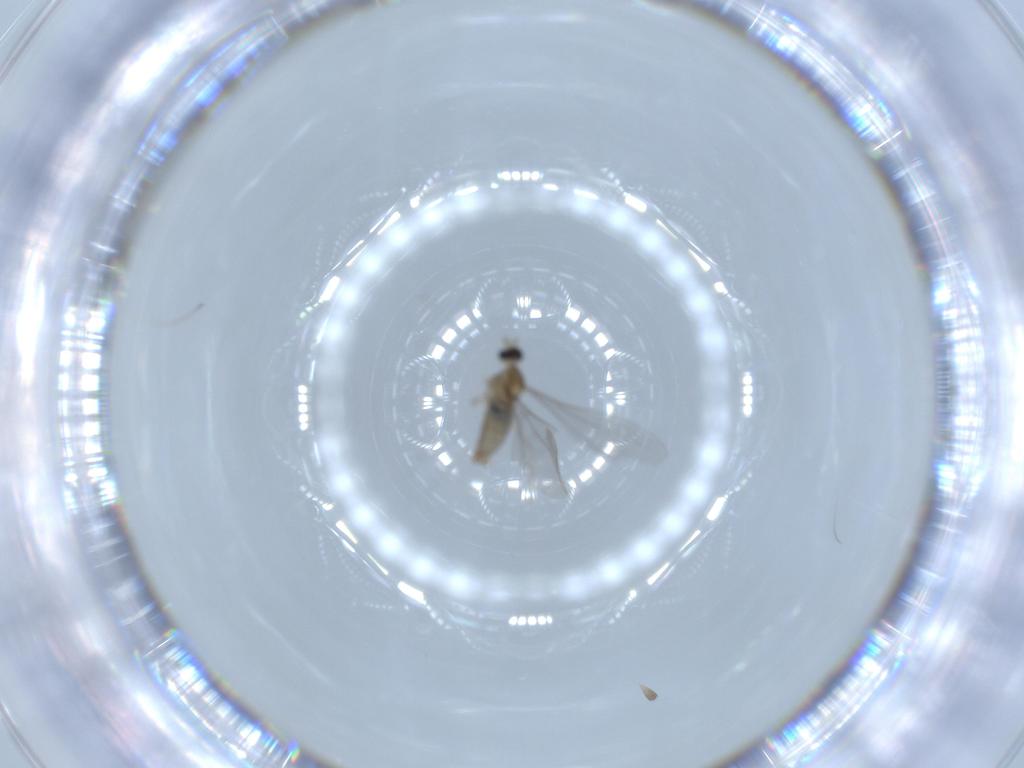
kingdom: Animalia
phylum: Arthropoda
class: Insecta
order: Diptera
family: Cecidomyiidae
